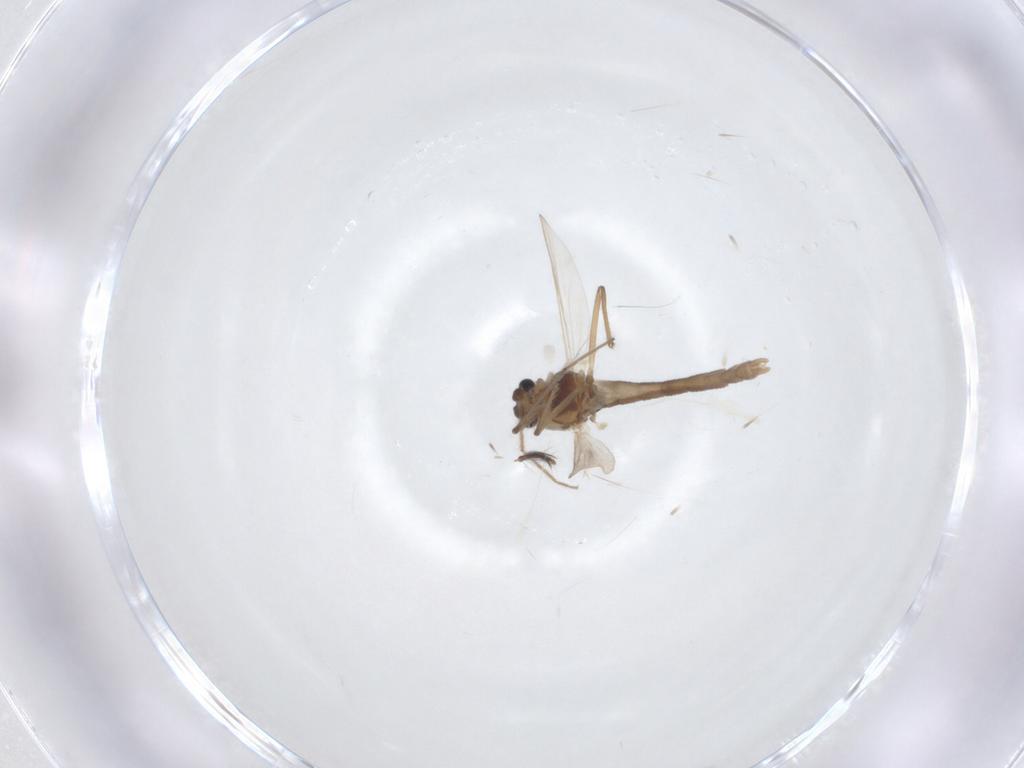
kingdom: Animalia
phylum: Arthropoda
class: Insecta
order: Diptera
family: Chironomidae
